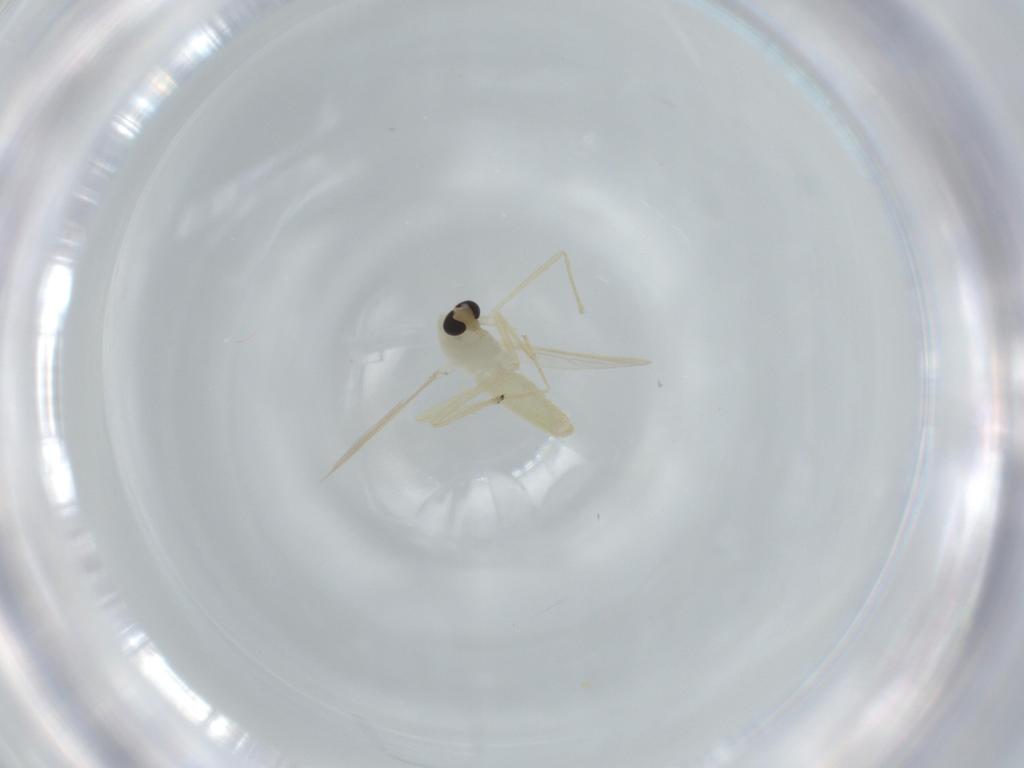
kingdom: Animalia
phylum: Arthropoda
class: Insecta
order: Diptera
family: Chironomidae
